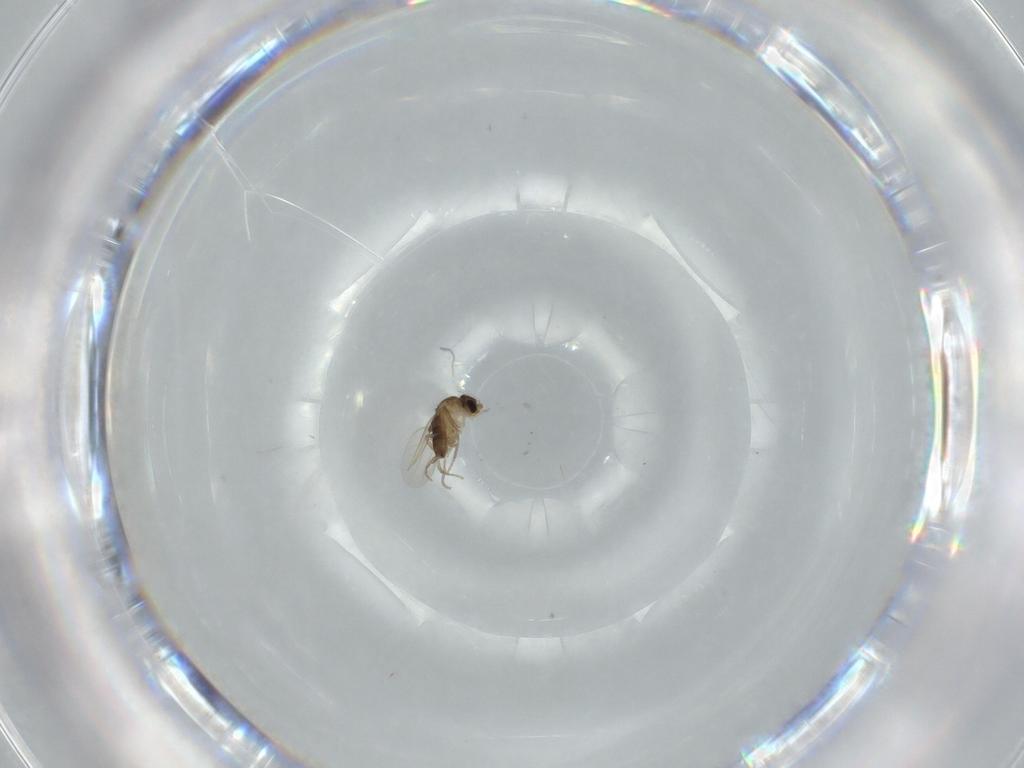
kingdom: Animalia
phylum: Arthropoda
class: Insecta
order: Diptera
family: Phoridae
